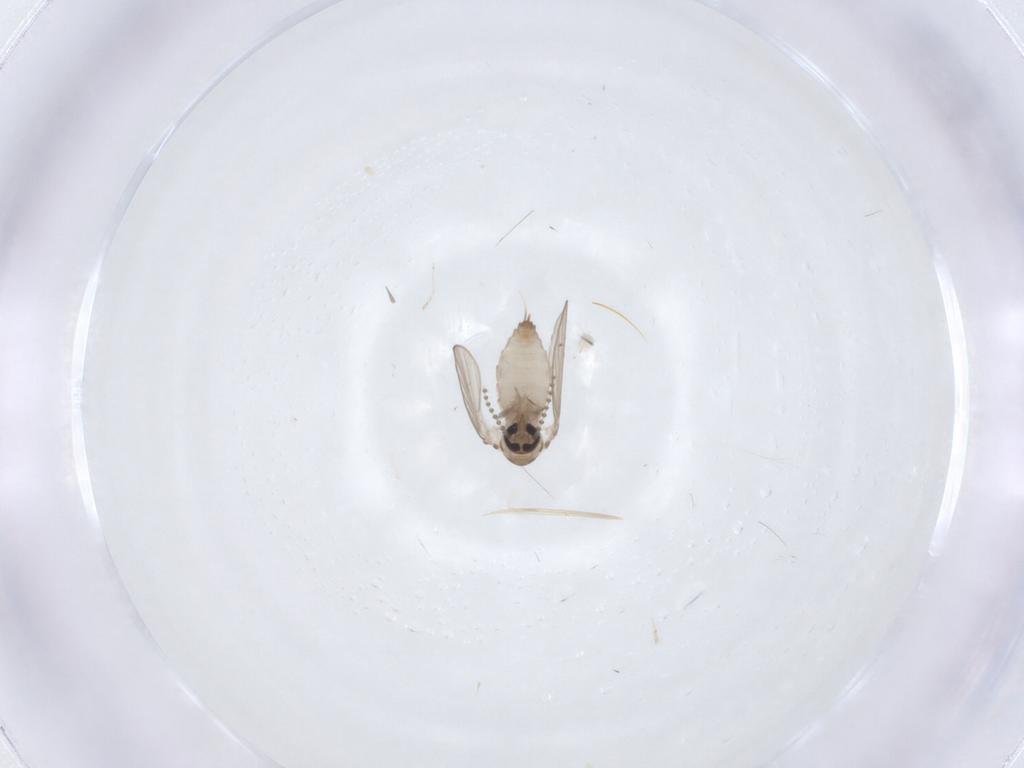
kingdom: Animalia
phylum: Arthropoda
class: Insecta
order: Diptera
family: Psychodidae
